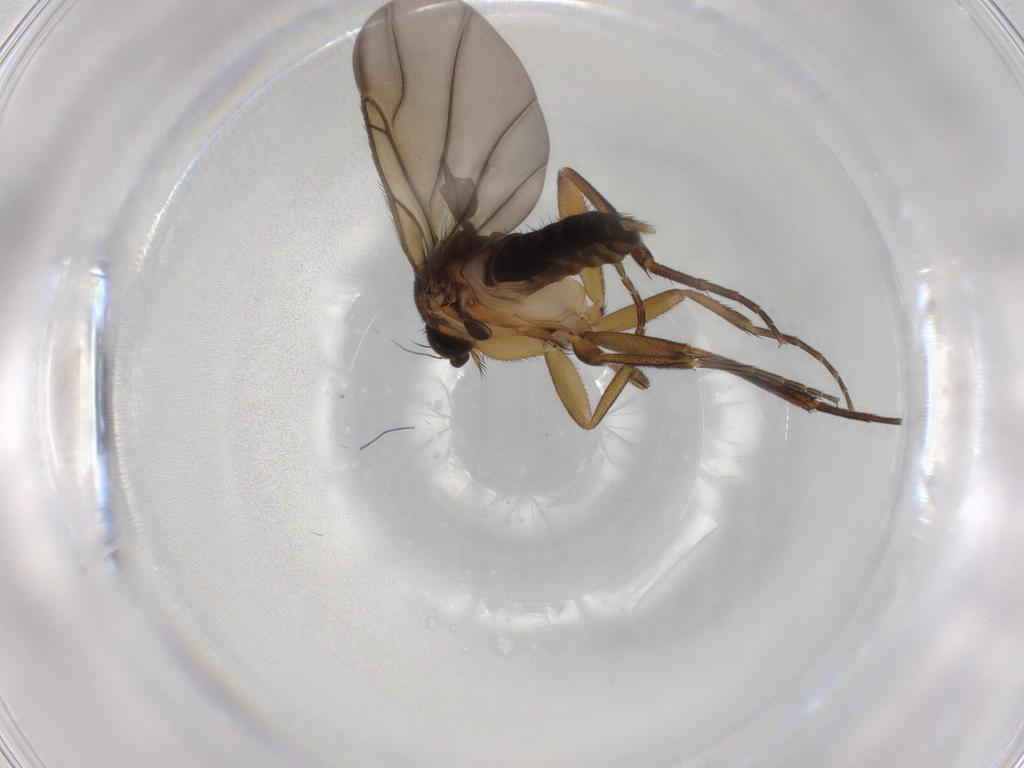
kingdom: Animalia
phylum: Arthropoda
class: Insecta
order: Diptera
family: Phoridae
